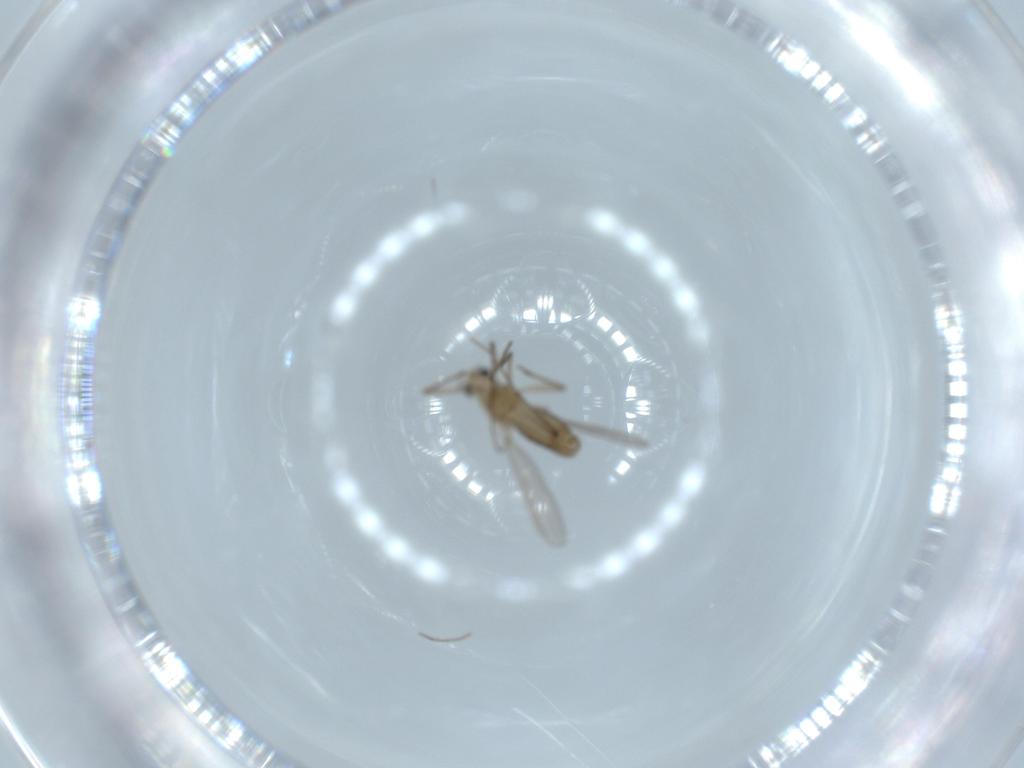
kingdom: Animalia
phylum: Arthropoda
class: Insecta
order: Diptera
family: Chironomidae
